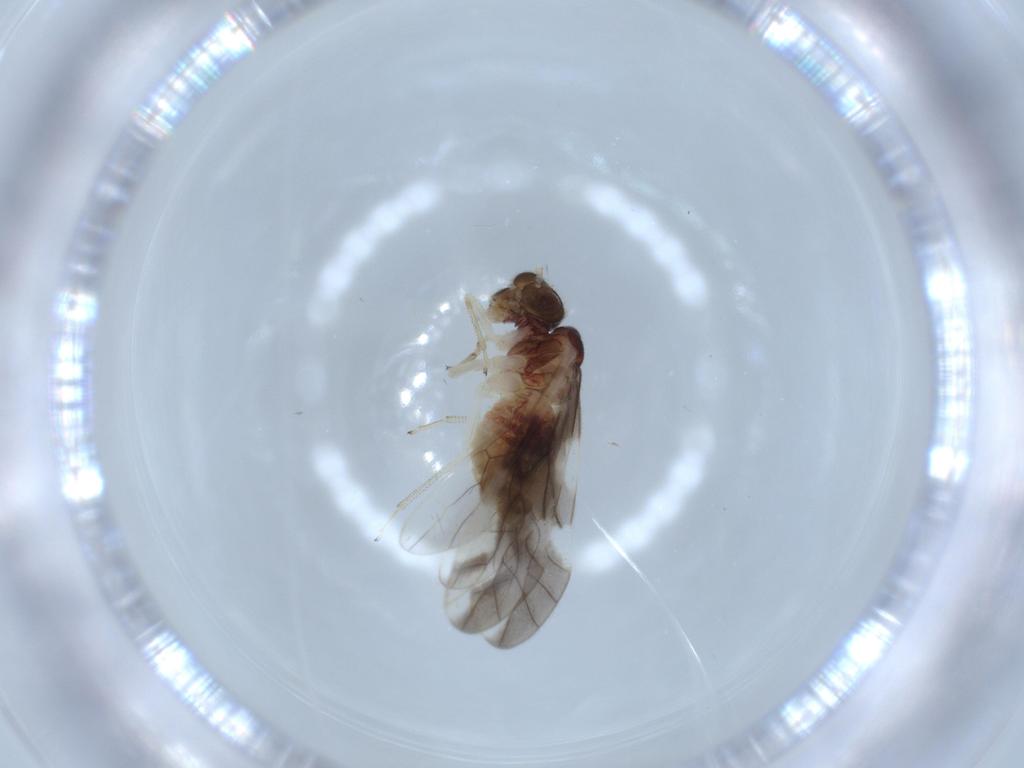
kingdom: Animalia
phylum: Arthropoda
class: Insecta
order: Psocodea
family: Caeciliusidae
